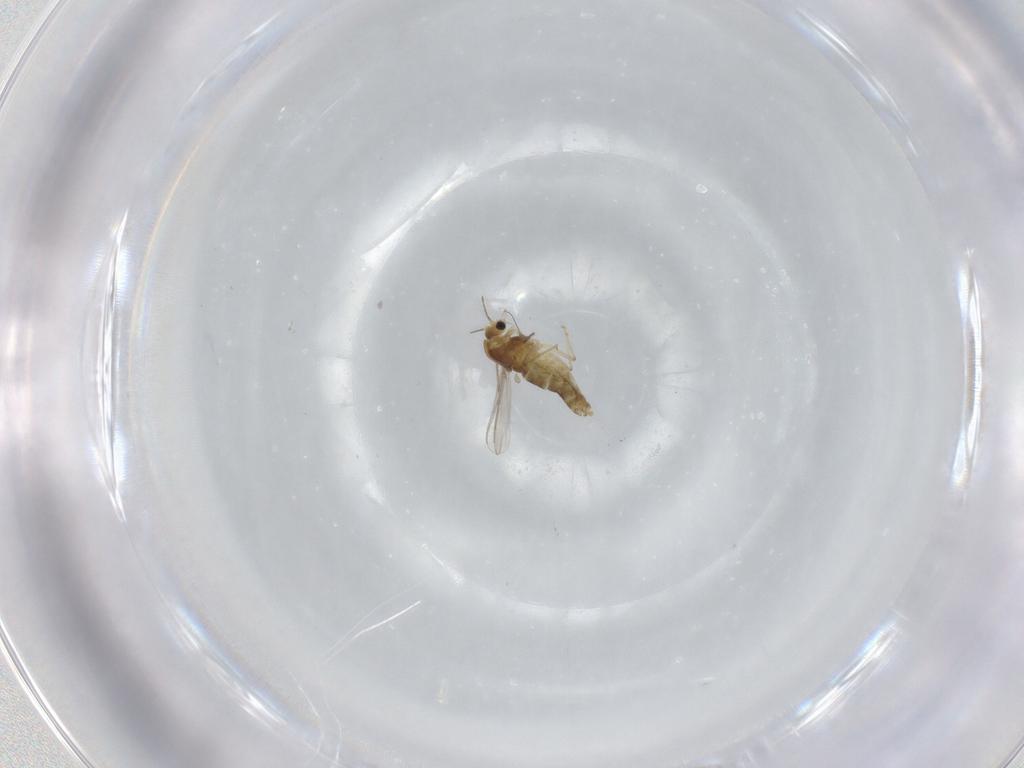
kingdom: Animalia
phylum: Arthropoda
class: Insecta
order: Diptera
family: Chironomidae
